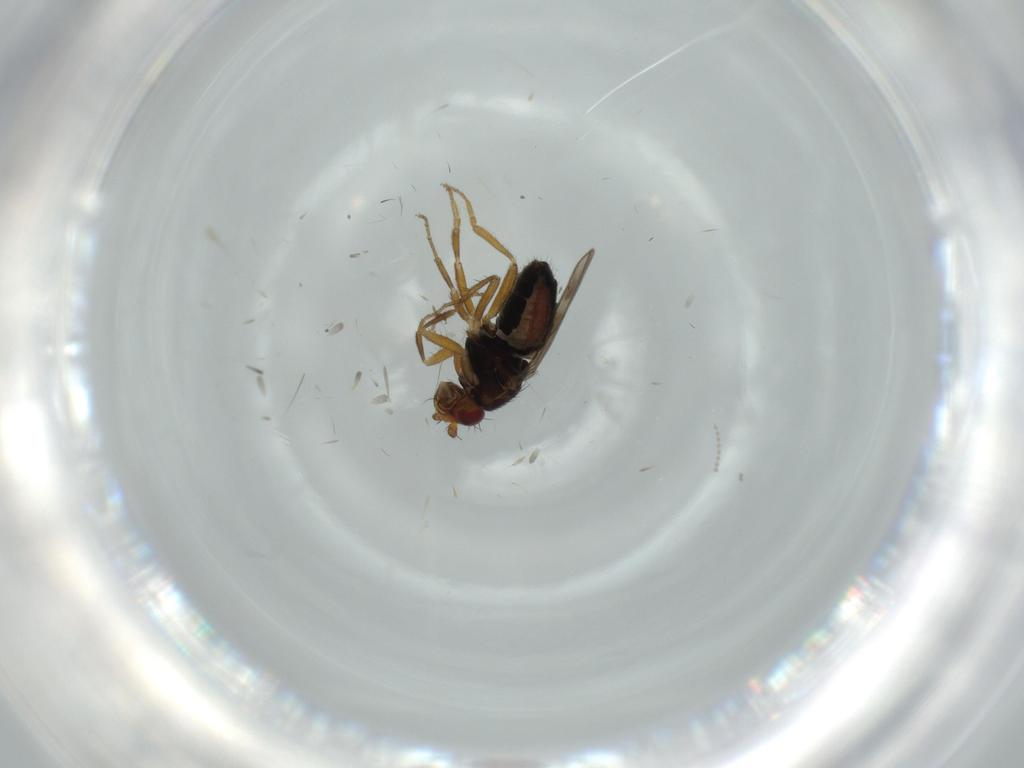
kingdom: Animalia
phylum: Arthropoda
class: Insecta
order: Diptera
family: Sphaeroceridae
